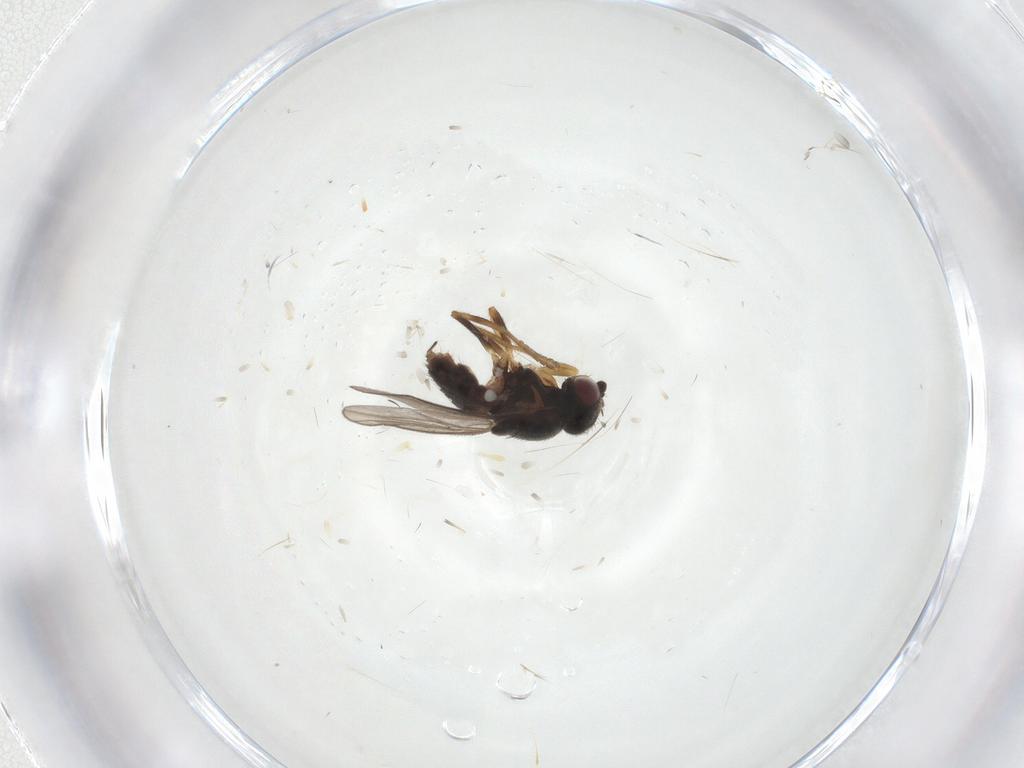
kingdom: Animalia
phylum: Arthropoda
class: Insecta
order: Diptera
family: Chloropidae
